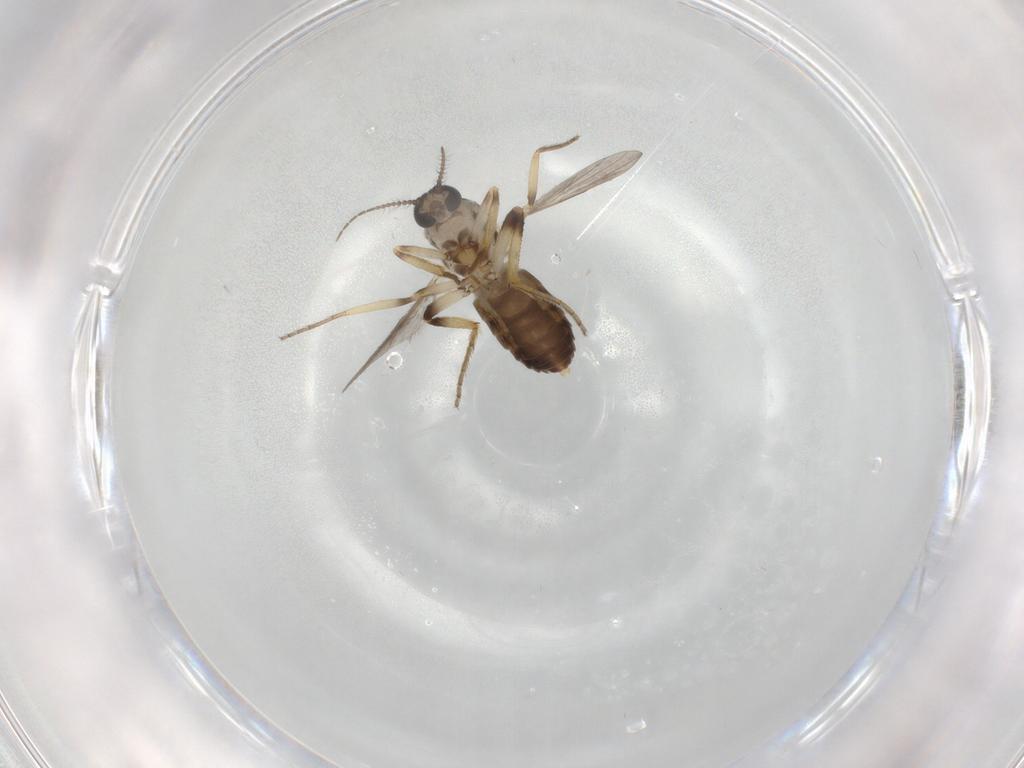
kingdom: Animalia
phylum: Arthropoda
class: Insecta
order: Diptera
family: Ceratopogonidae
